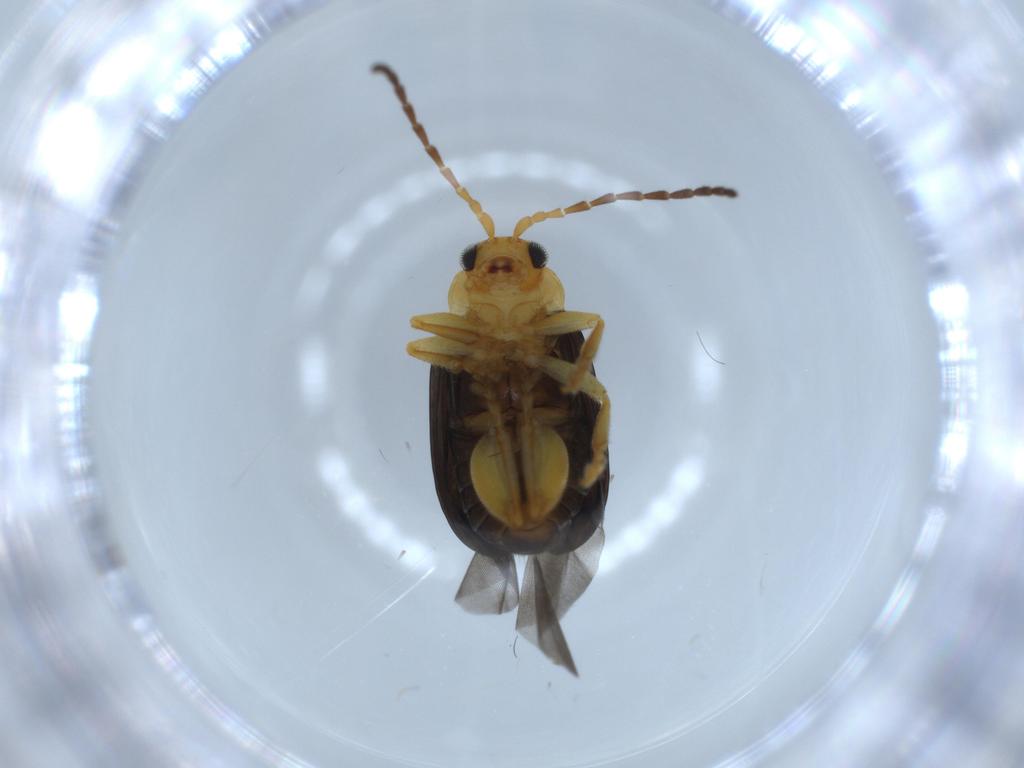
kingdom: Animalia
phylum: Arthropoda
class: Insecta
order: Coleoptera
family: Chrysomelidae
